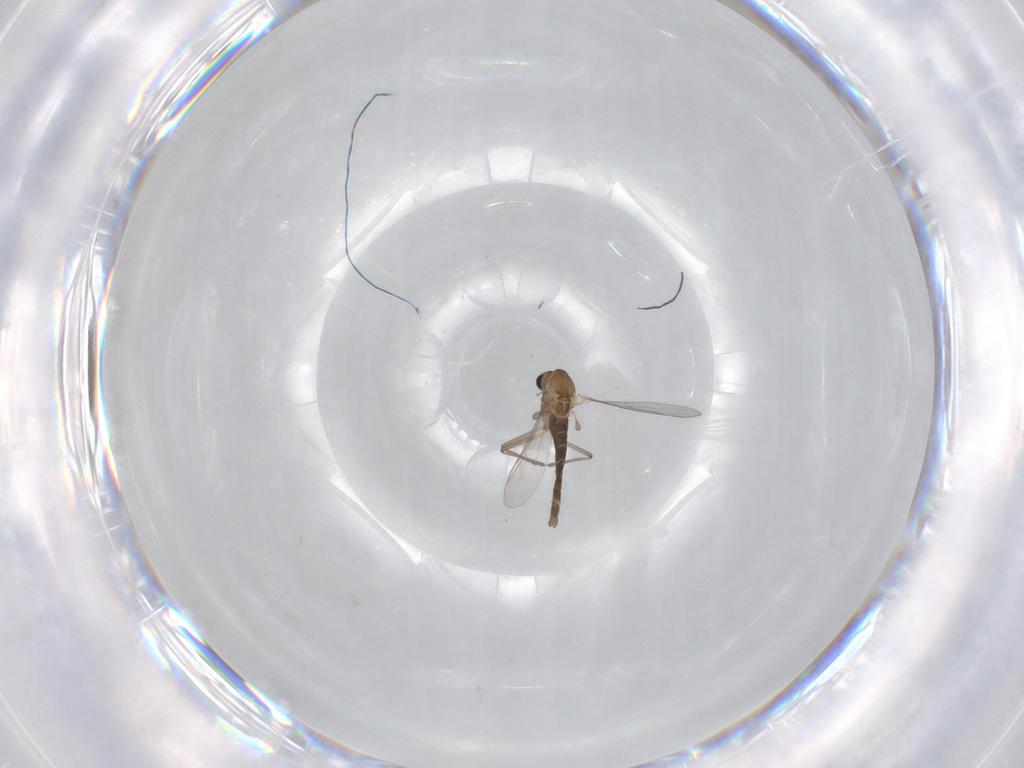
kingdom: Animalia
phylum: Arthropoda
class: Insecta
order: Diptera
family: Chironomidae
